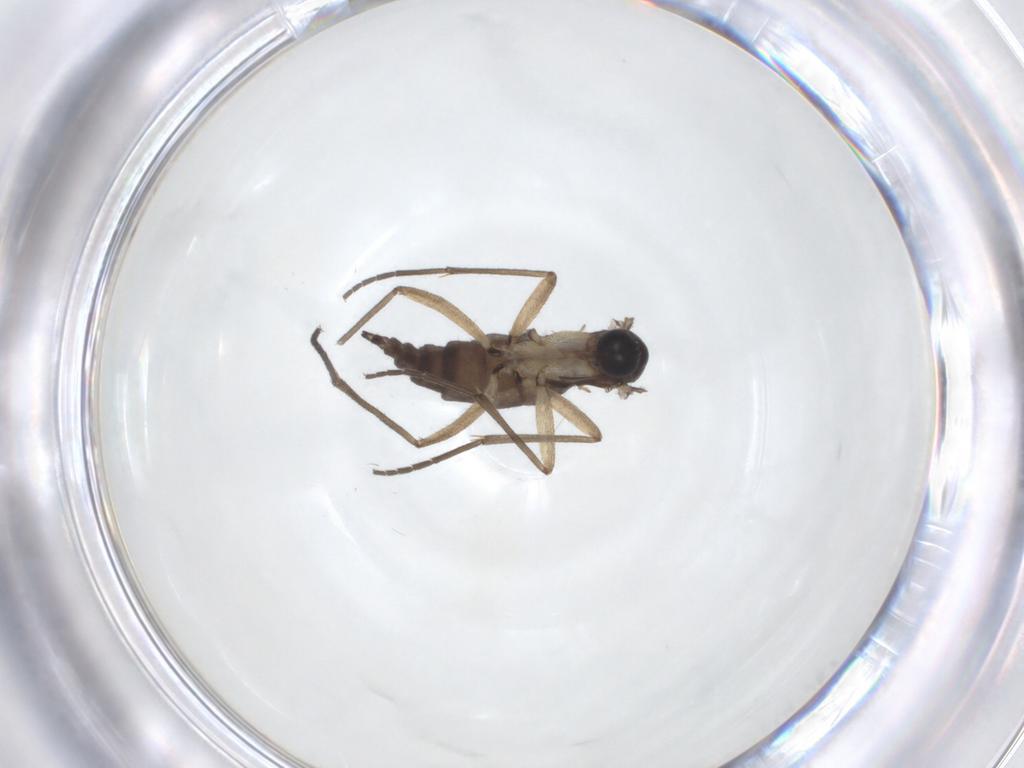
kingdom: Animalia
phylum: Arthropoda
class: Insecta
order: Diptera
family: Sciaridae
